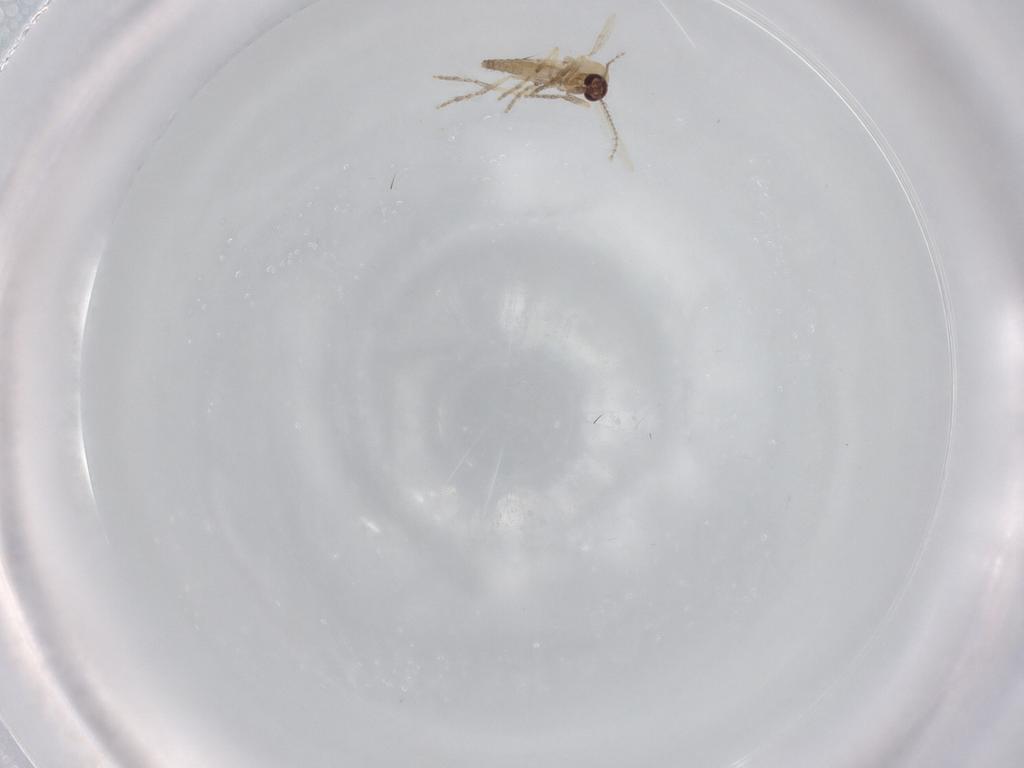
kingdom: Animalia
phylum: Arthropoda
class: Insecta
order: Diptera
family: Ceratopogonidae
